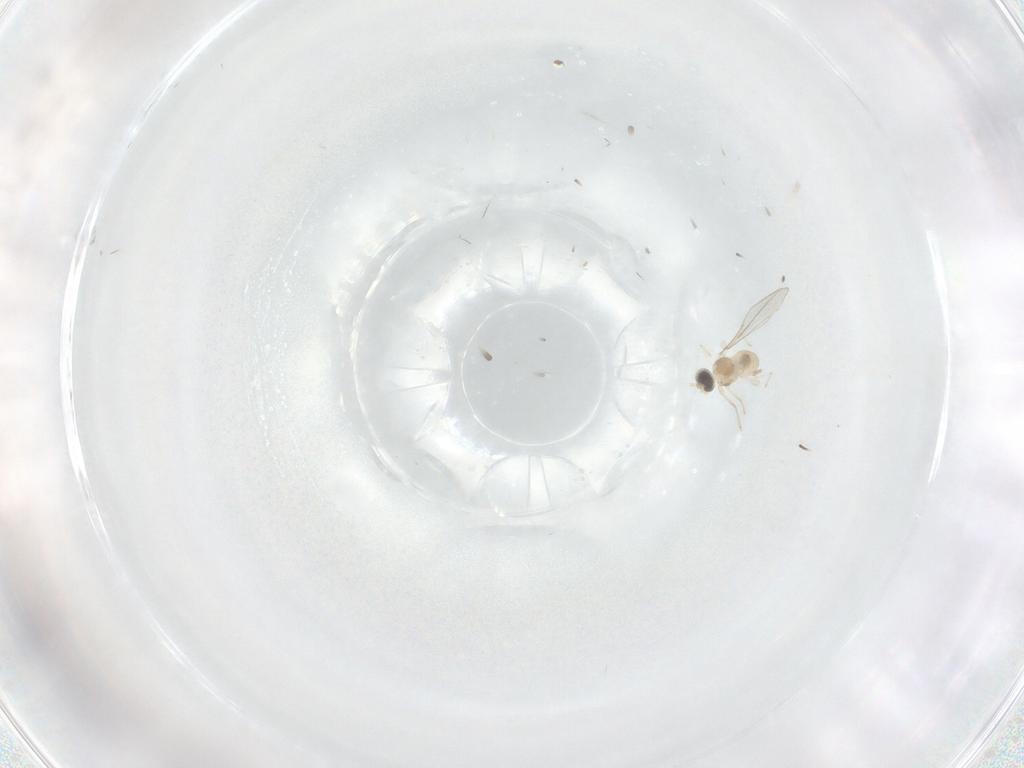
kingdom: Animalia
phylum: Arthropoda
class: Insecta
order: Diptera
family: Cecidomyiidae
